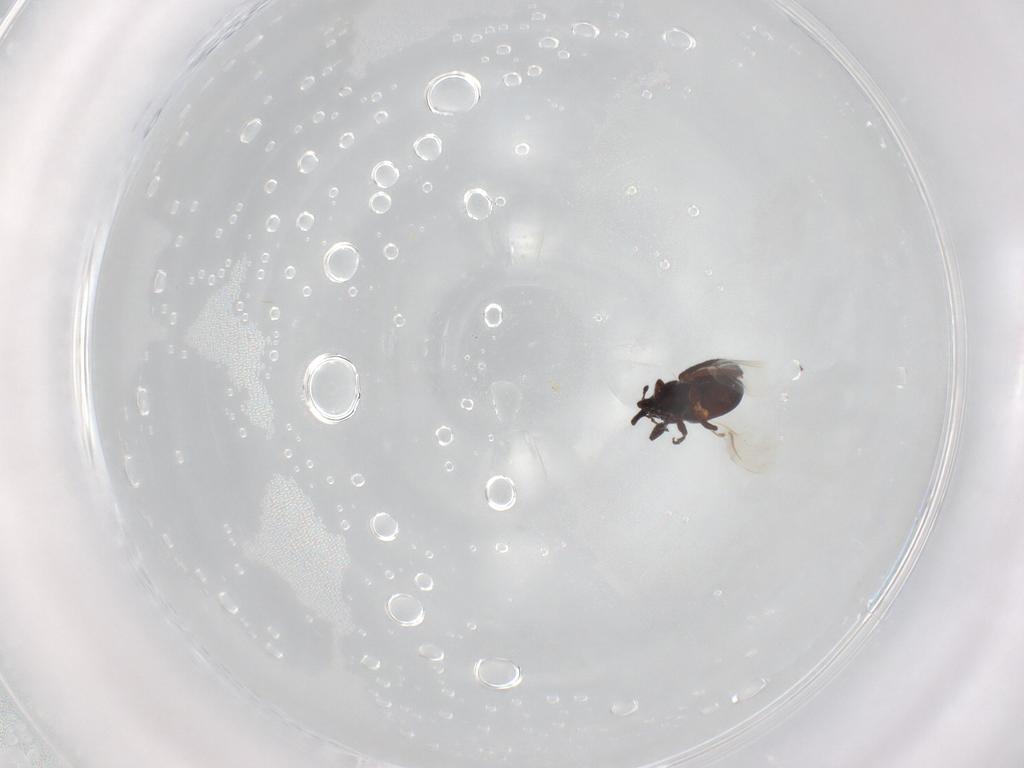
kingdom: Animalia
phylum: Arthropoda
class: Insecta
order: Coleoptera
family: Curculionidae
